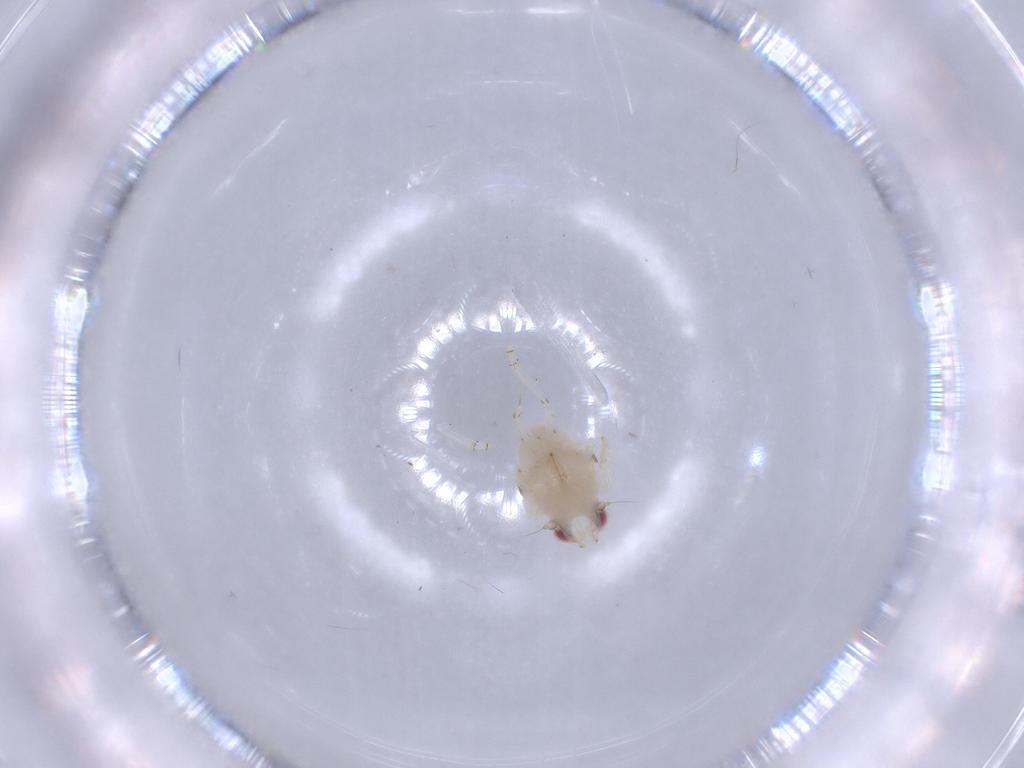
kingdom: Animalia
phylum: Arthropoda
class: Insecta
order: Hemiptera
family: Nogodinidae
